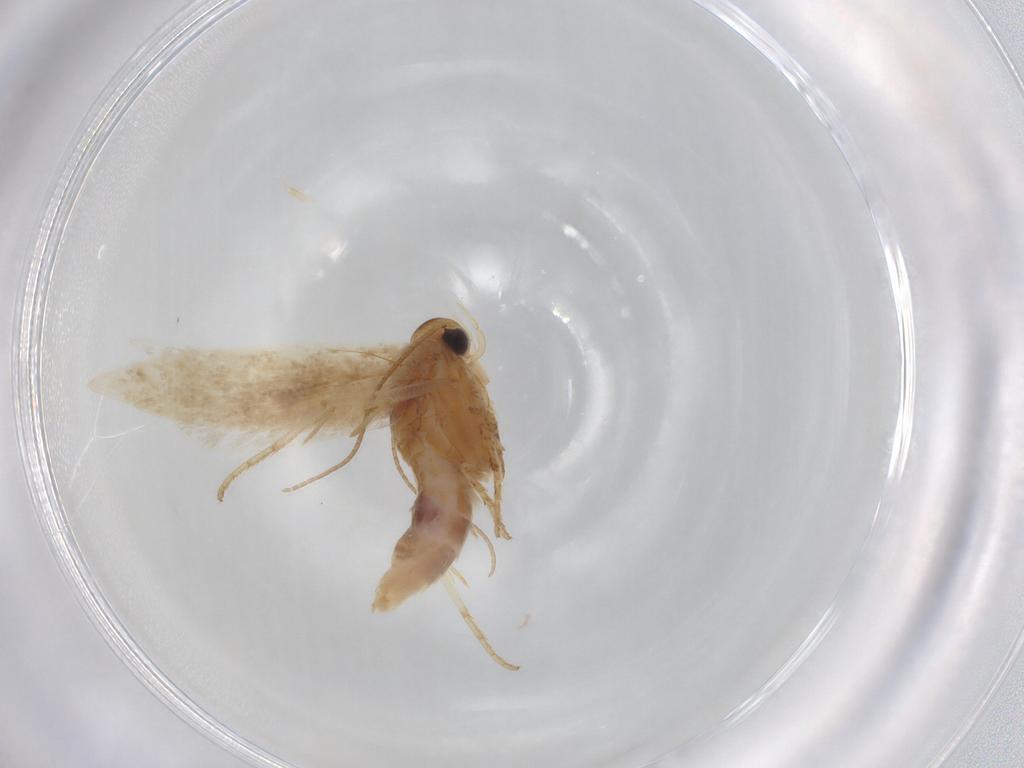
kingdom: Animalia
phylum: Arthropoda
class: Insecta
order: Lepidoptera
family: Gelechiidae
